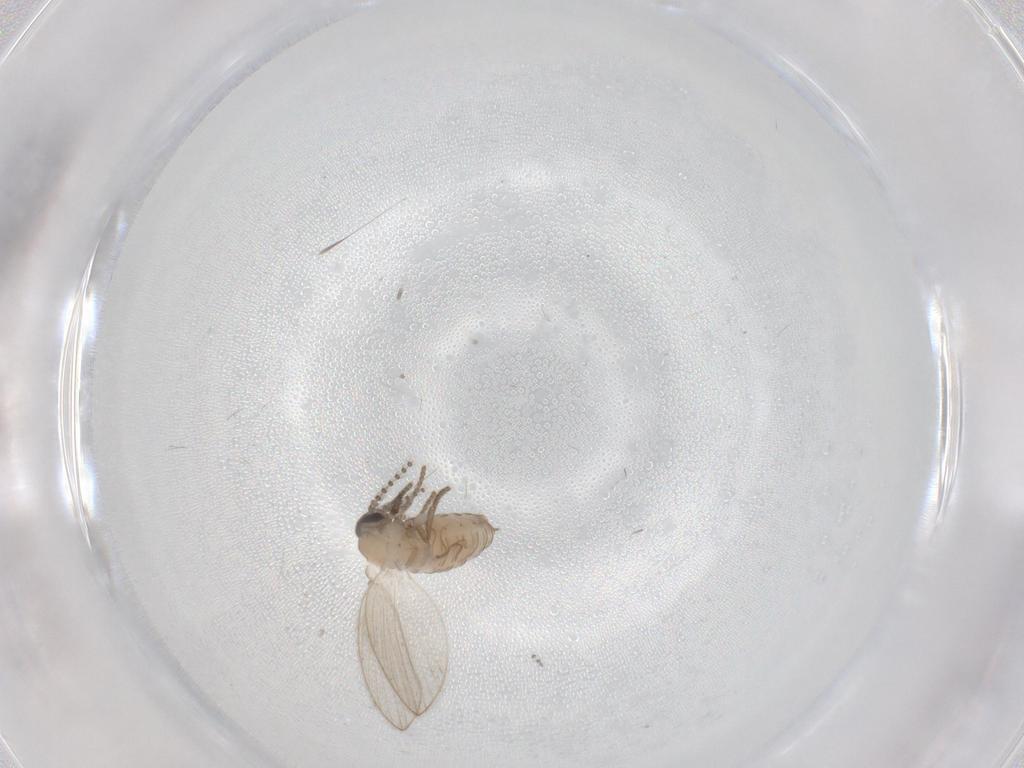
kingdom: Animalia
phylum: Arthropoda
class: Insecta
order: Diptera
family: Psychodidae
